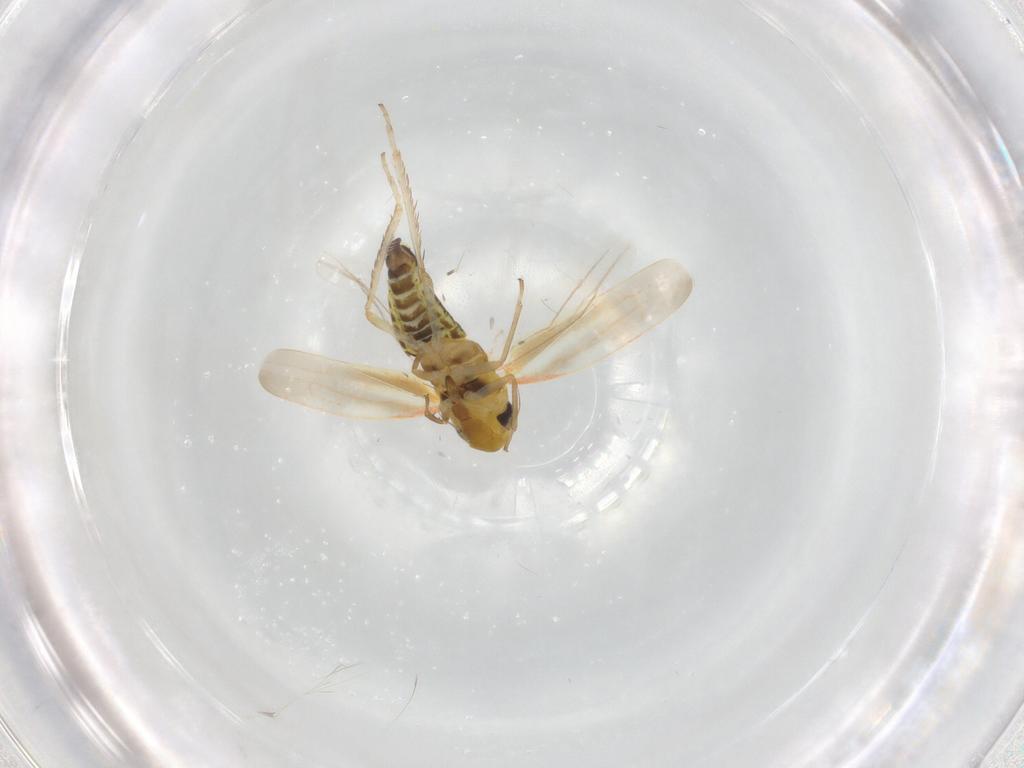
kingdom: Animalia
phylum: Arthropoda
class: Insecta
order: Hemiptera
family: Cicadellidae
